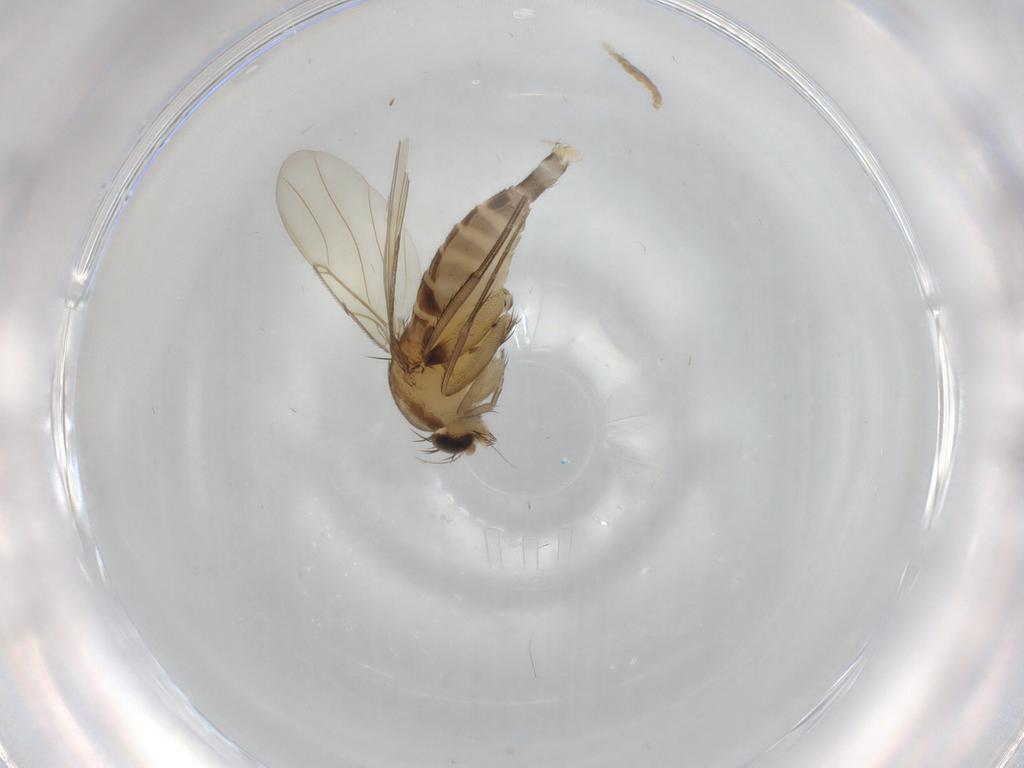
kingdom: Animalia
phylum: Arthropoda
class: Insecta
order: Diptera
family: Phoridae
